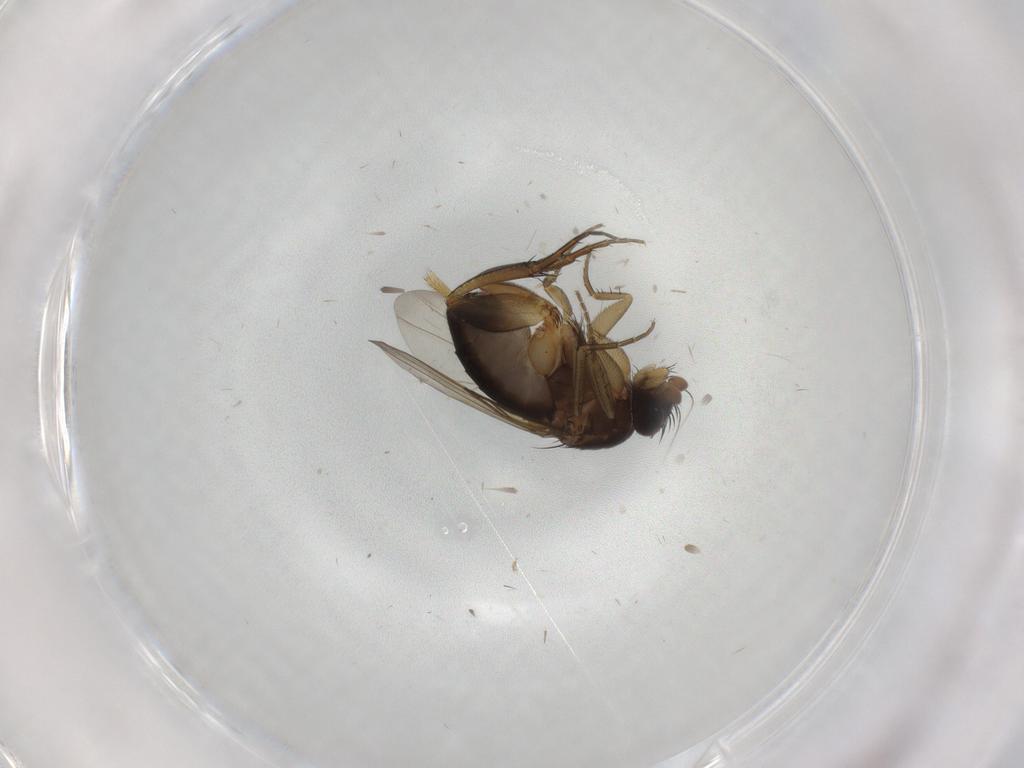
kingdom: Animalia
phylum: Arthropoda
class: Insecta
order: Diptera
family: Phoridae
